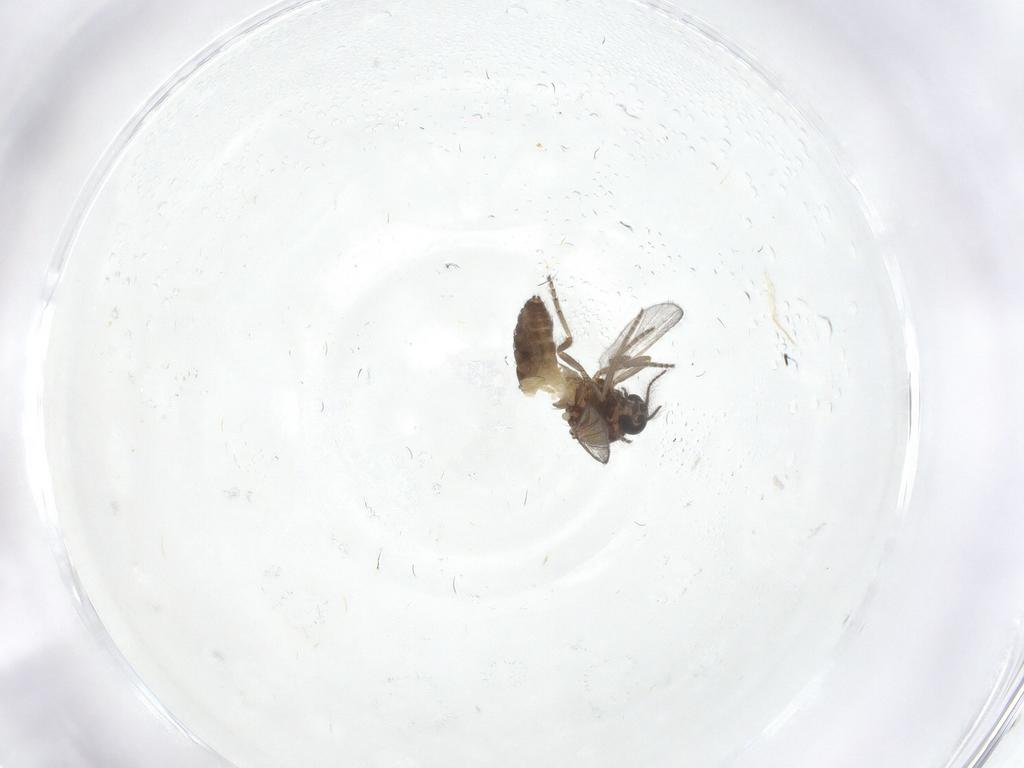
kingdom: Animalia
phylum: Arthropoda
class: Insecta
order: Diptera
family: Ceratopogonidae
